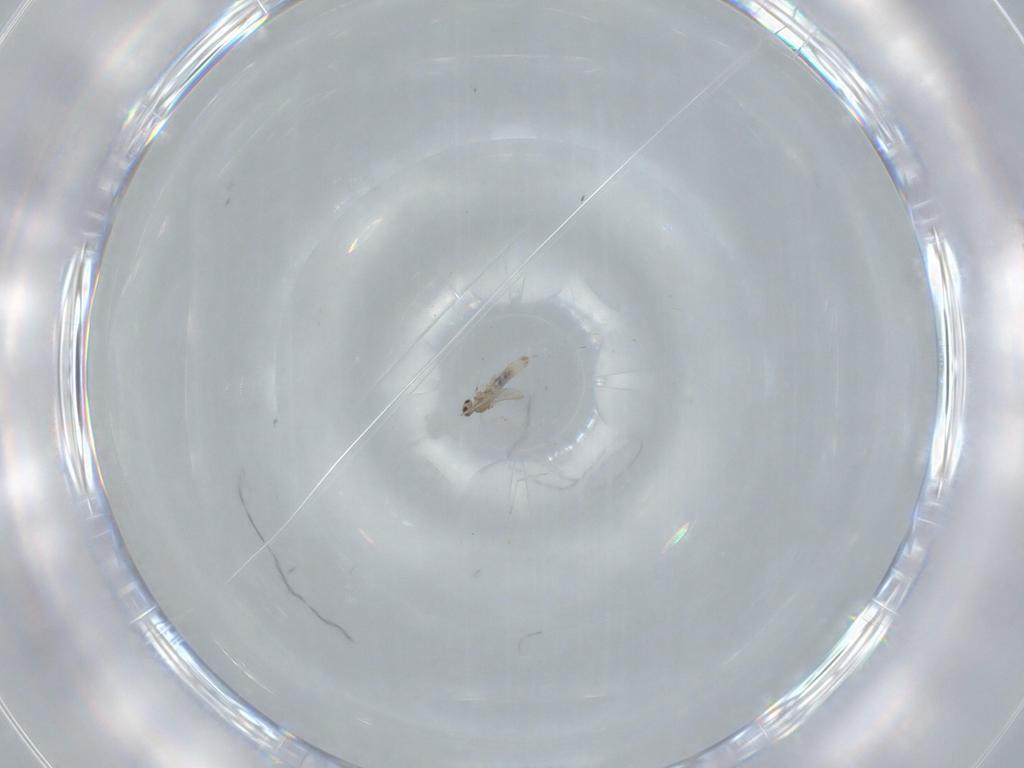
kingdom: Animalia
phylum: Arthropoda
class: Insecta
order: Diptera
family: Cecidomyiidae
